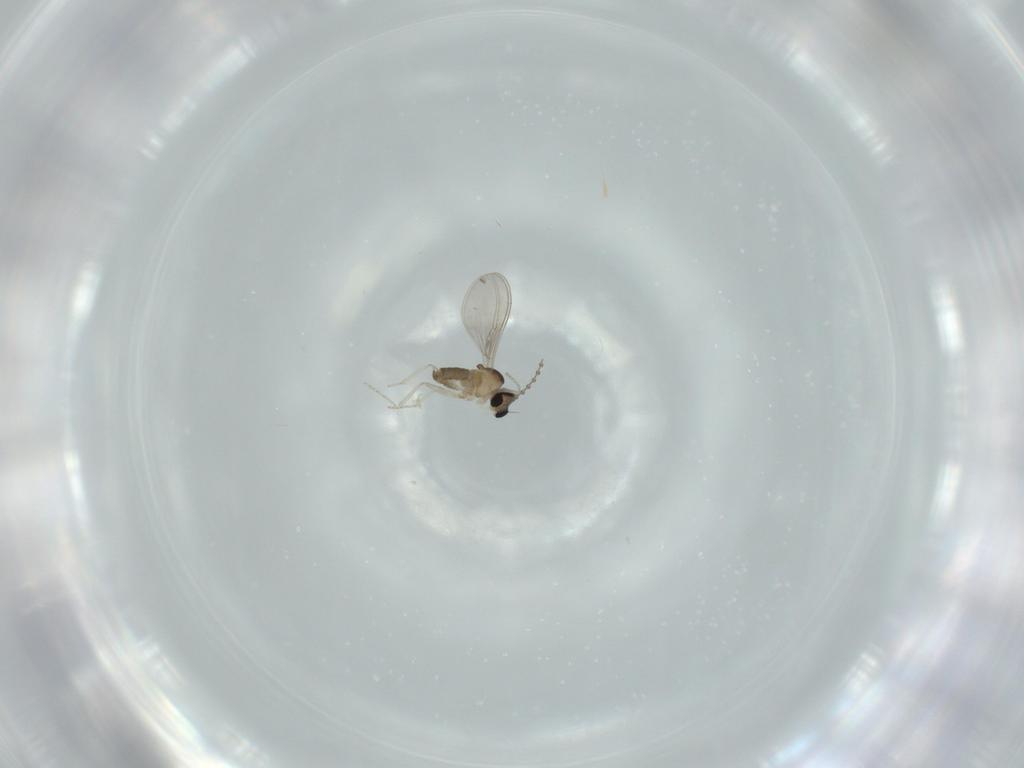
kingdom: Animalia
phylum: Arthropoda
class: Insecta
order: Diptera
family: Cecidomyiidae
